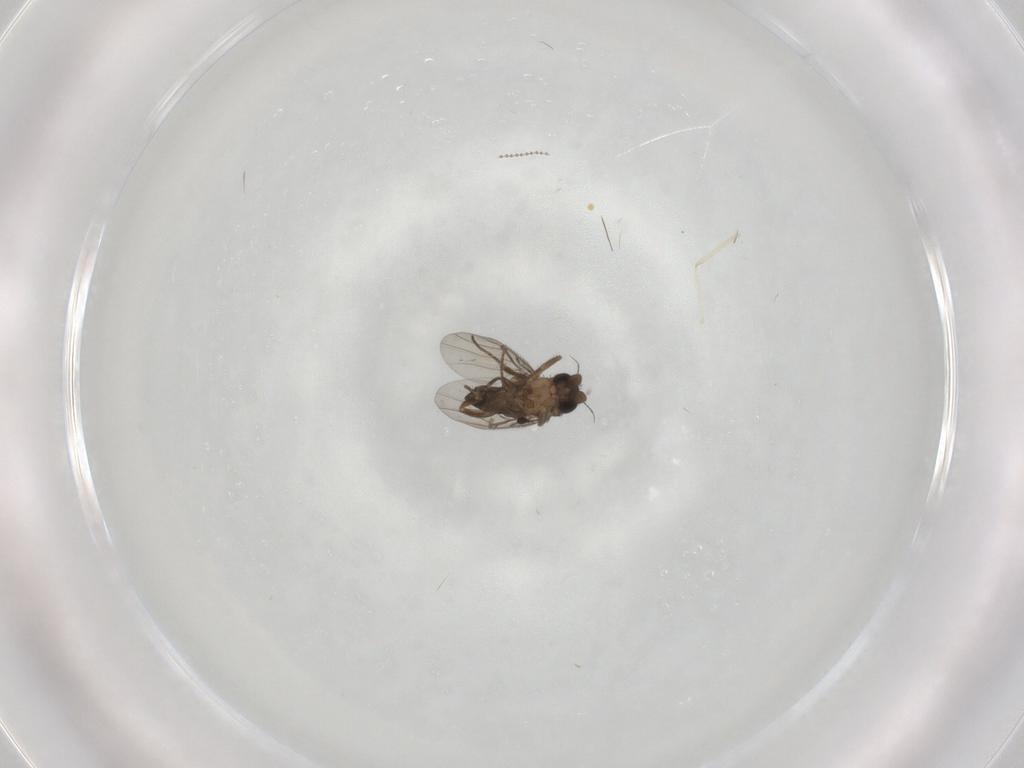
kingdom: Animalia
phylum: Arthropoda
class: Insecta
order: Diptera
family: Cecidomyiidae
